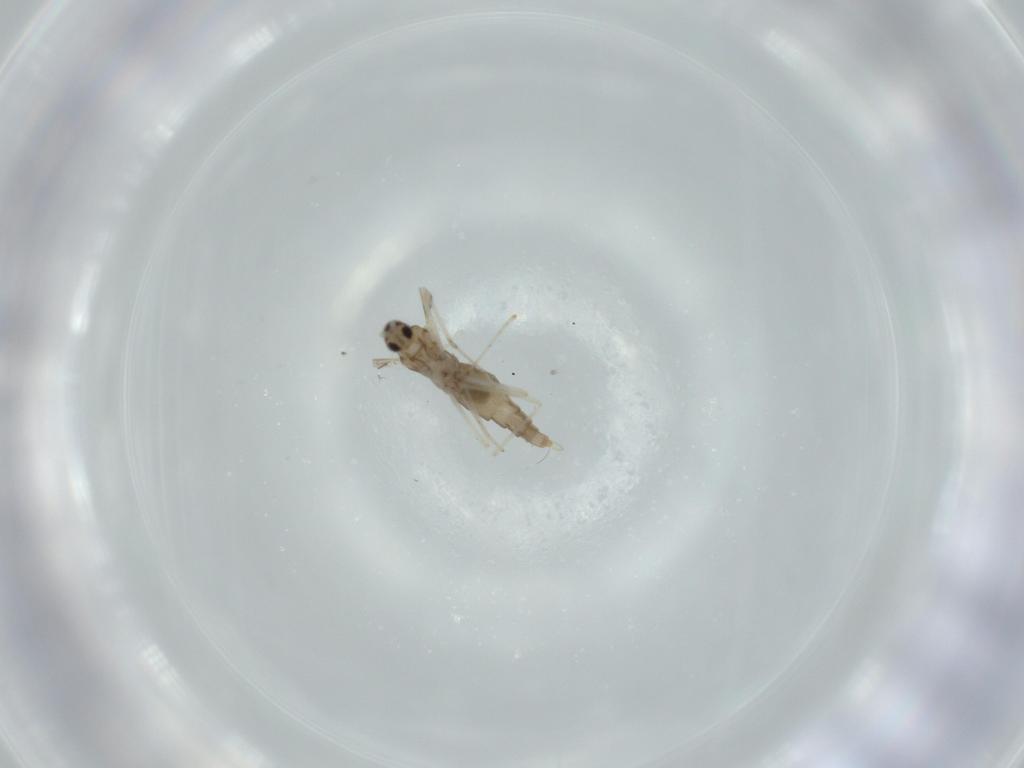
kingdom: Animalia
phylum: Arthropoda
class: Insecta
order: Diptera
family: Cecidomyiidae
